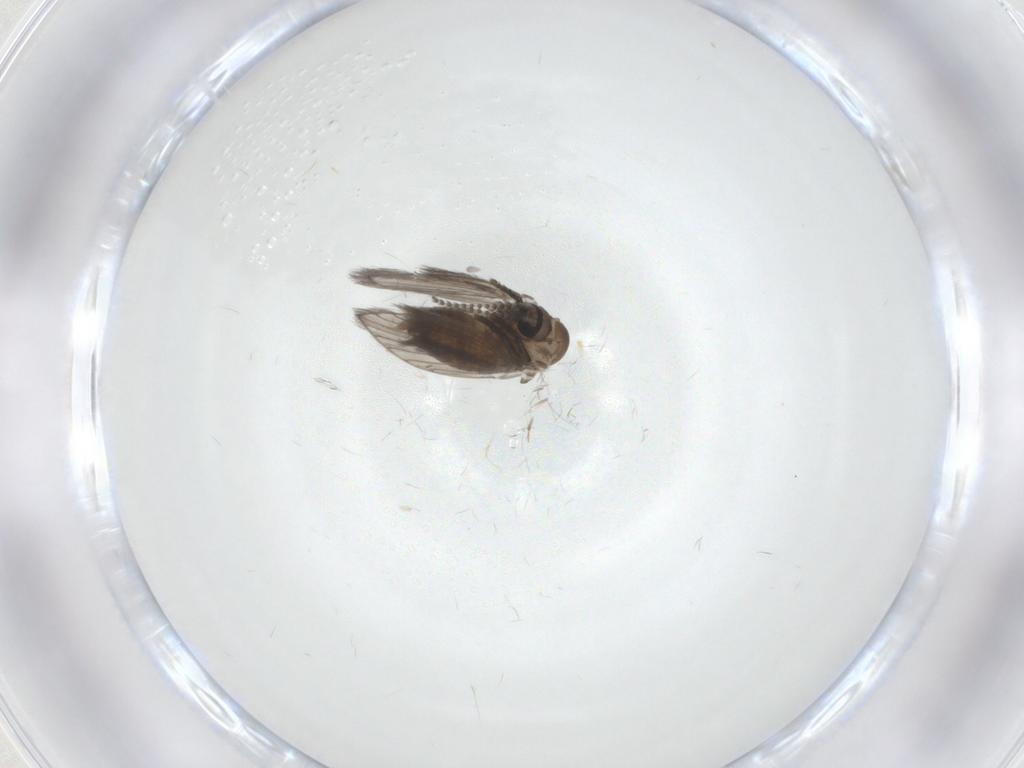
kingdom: Animalia
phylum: Arthropoda
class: Insecta
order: Diptera
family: Psychodidae
